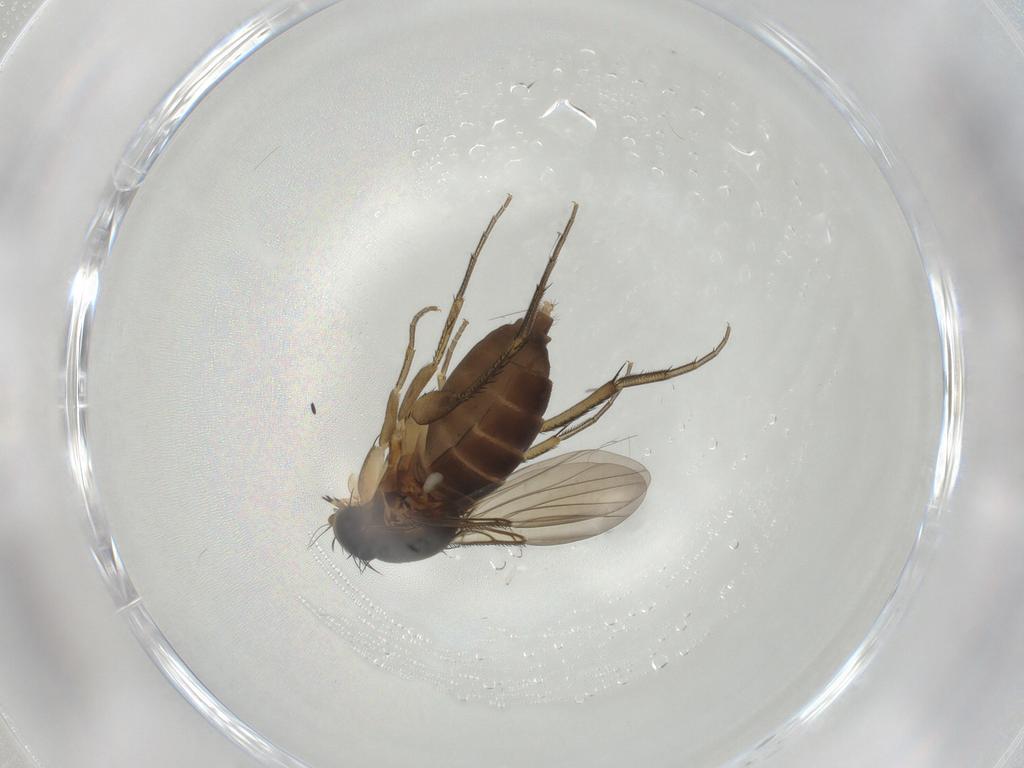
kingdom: Animalia
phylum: Arthropoda
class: Insecta
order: Diptera
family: Phoridae
